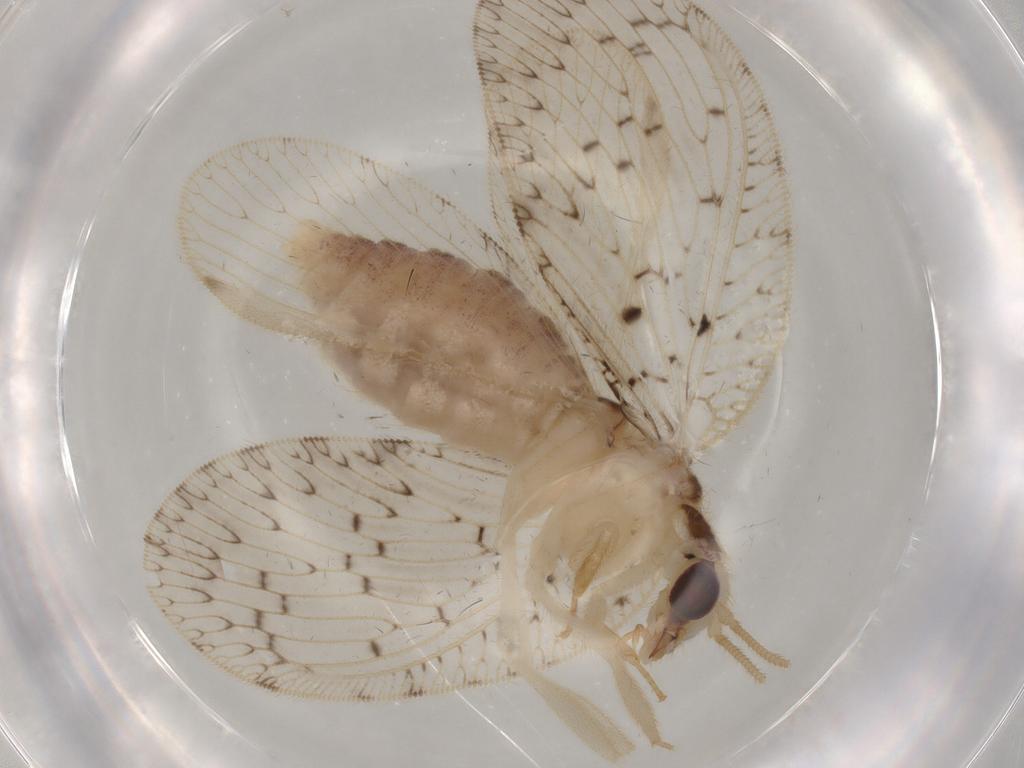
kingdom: Animalia
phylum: Arthropoda
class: Insecta
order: Neuroptera
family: Hemerobiidae
